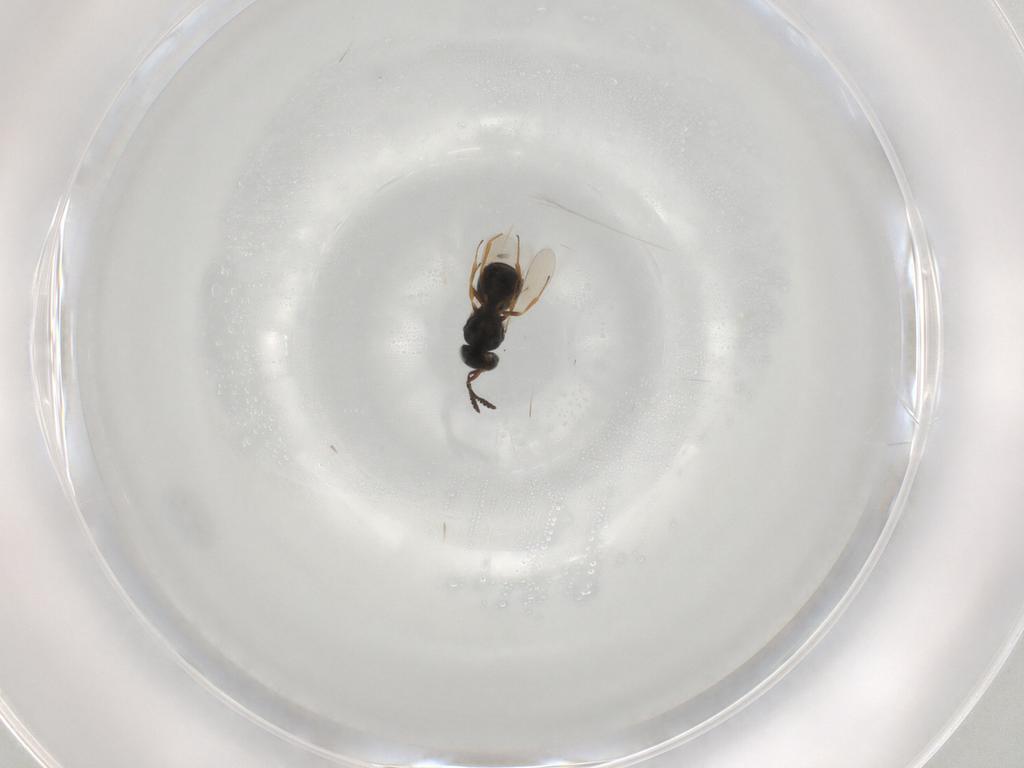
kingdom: Animalia
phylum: Arthropoda
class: Insecta
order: Hymenoptera
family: Scelionidae
